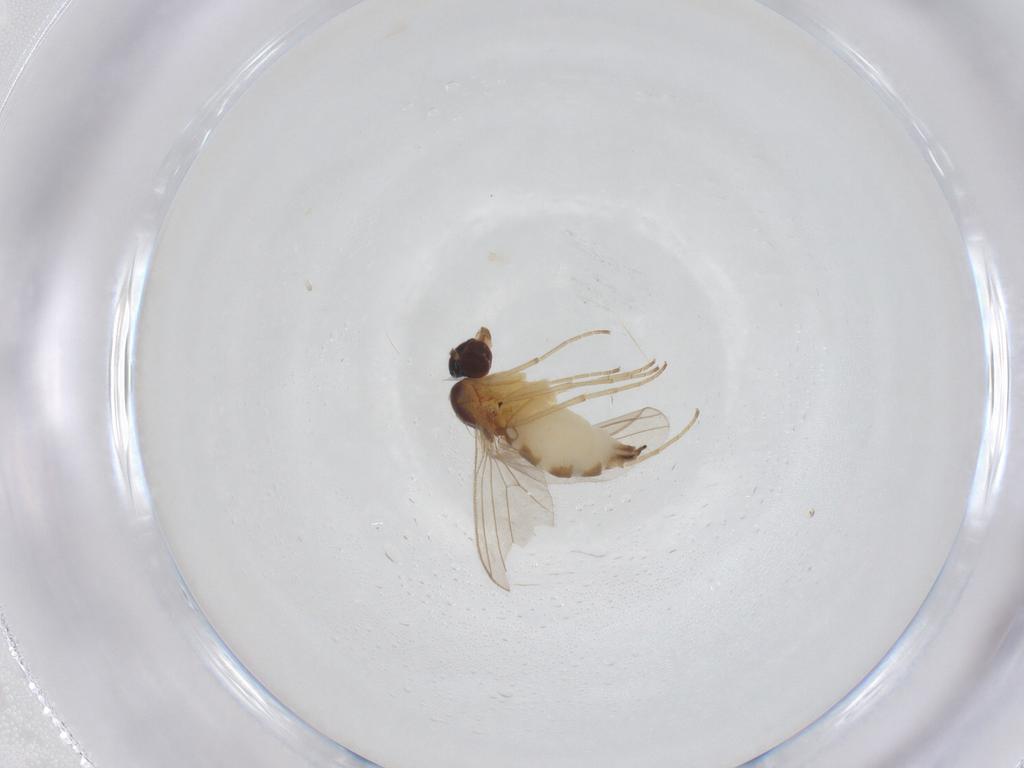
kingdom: Animalia
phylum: Arthropoda
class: Insecta
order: Diptera
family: Dolichopodidae
